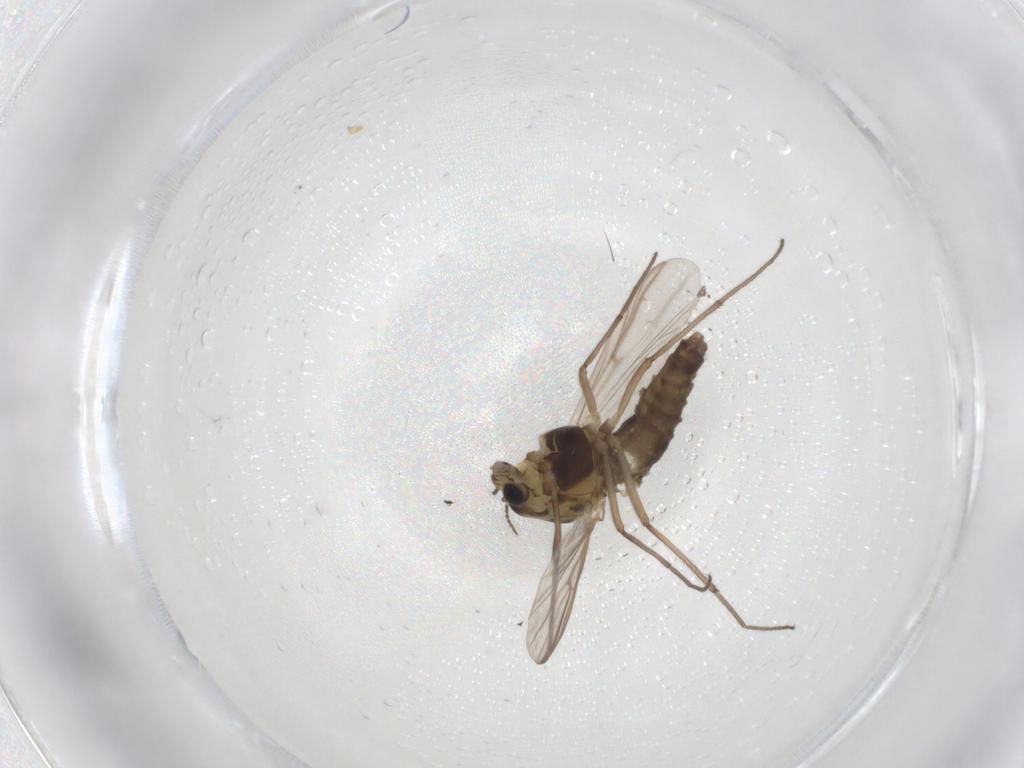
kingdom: Animalia
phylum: Arthropoda
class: Insecta
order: Diptera
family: Chironomidae
